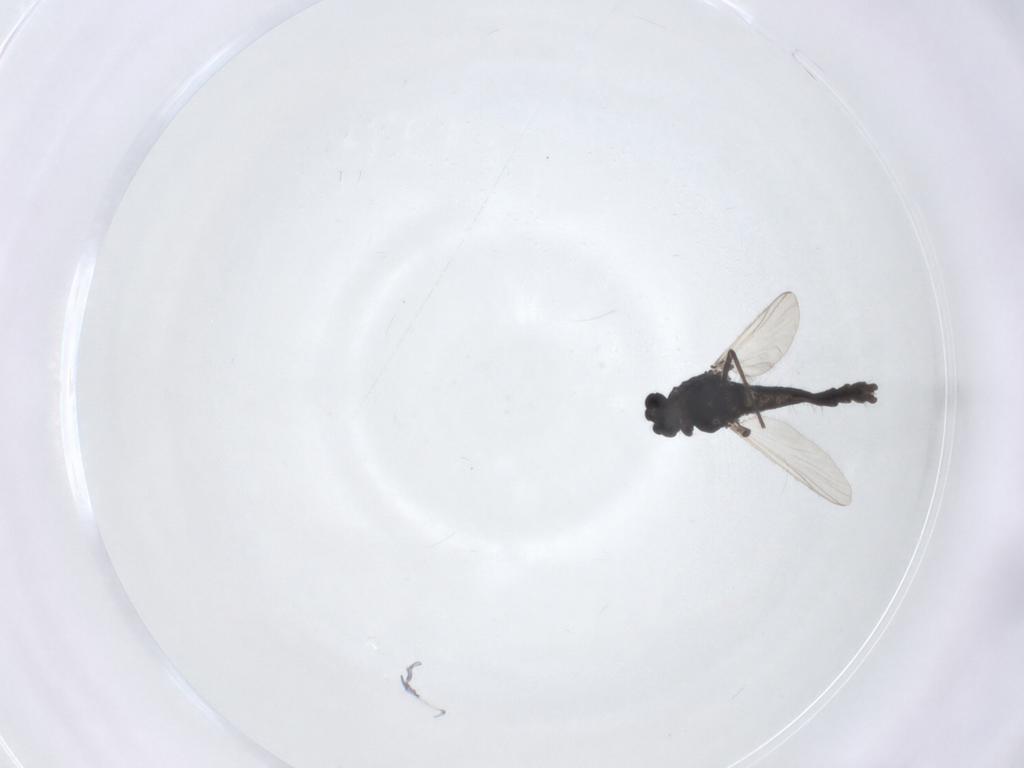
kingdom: Animalia
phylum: Arthropoda
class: Insecta
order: Diptera
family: Chironomidae
